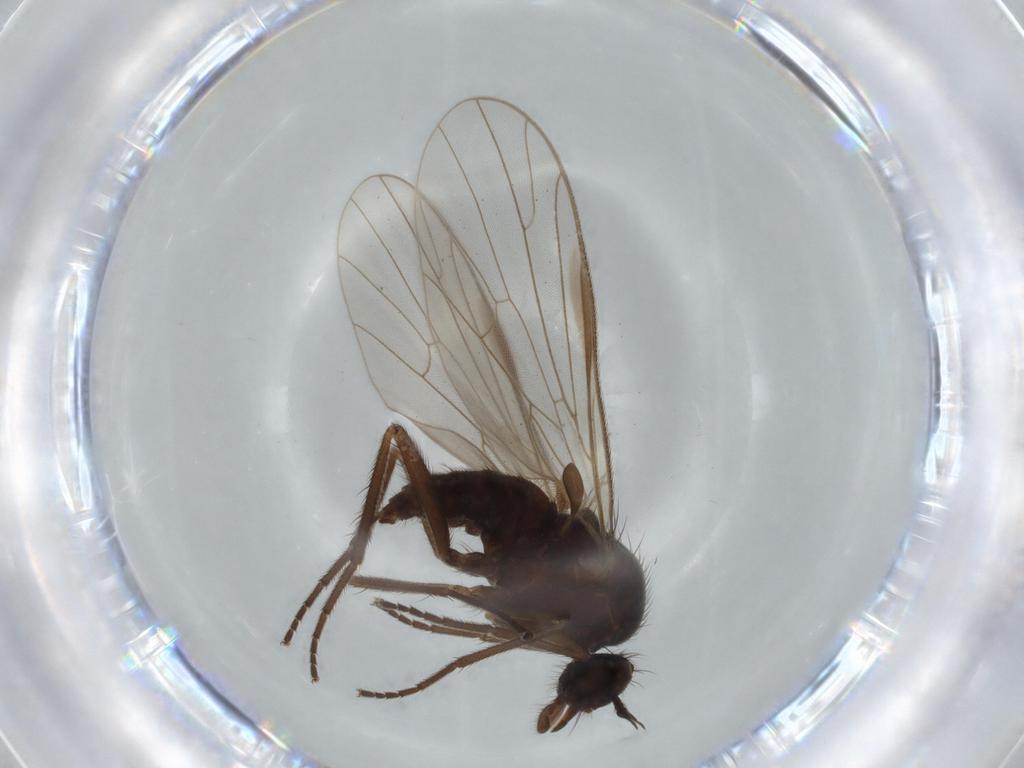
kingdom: Animalia
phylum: Arthropoda
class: Insecta
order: Diptera
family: Empididae
